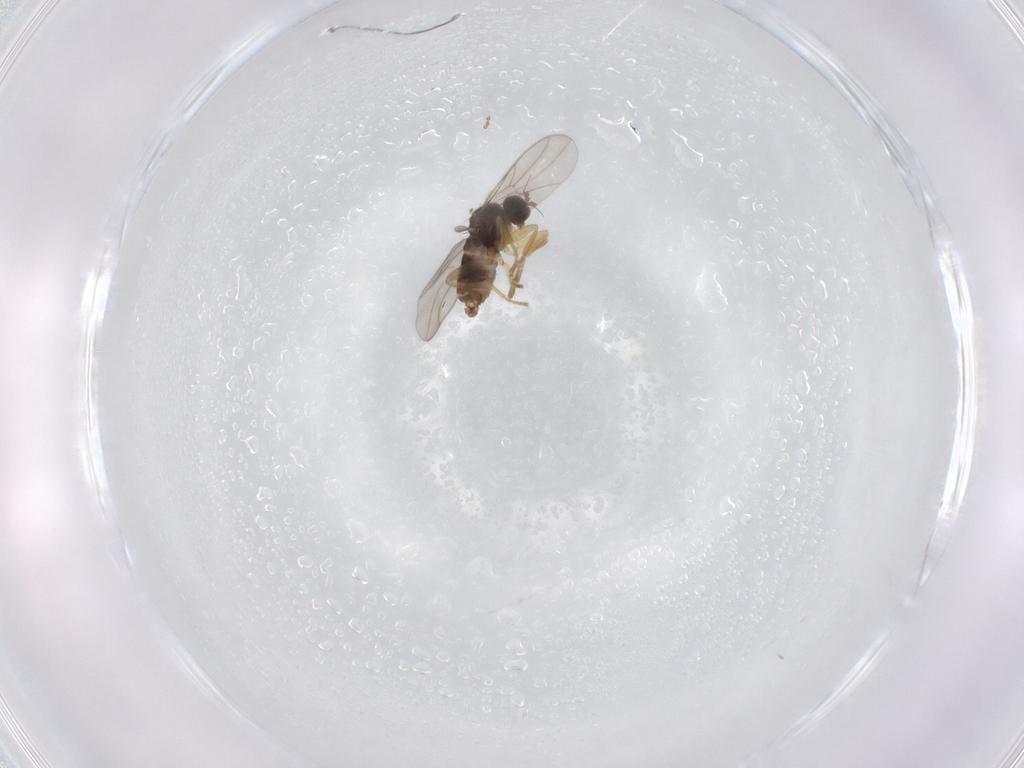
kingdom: Animalia
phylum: Arthropoda
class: Insecta
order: Diptera
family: Hybotidae
